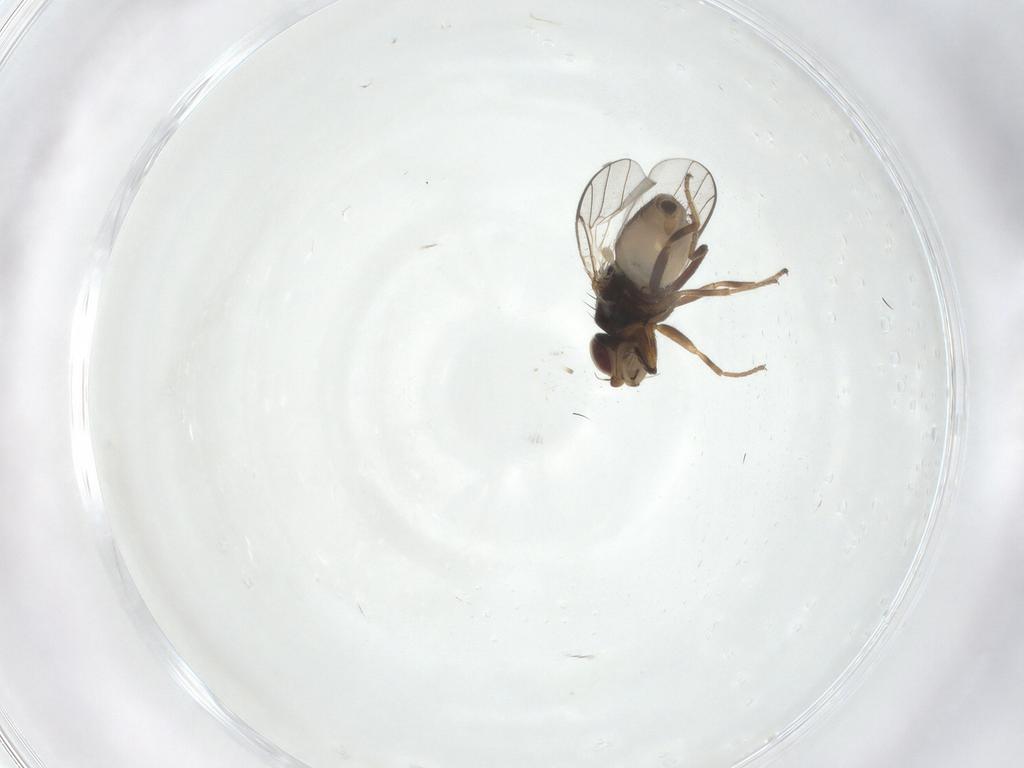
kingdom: Animalia
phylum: Arthropoda
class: Insecta
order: Diptera
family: Chloropidae
